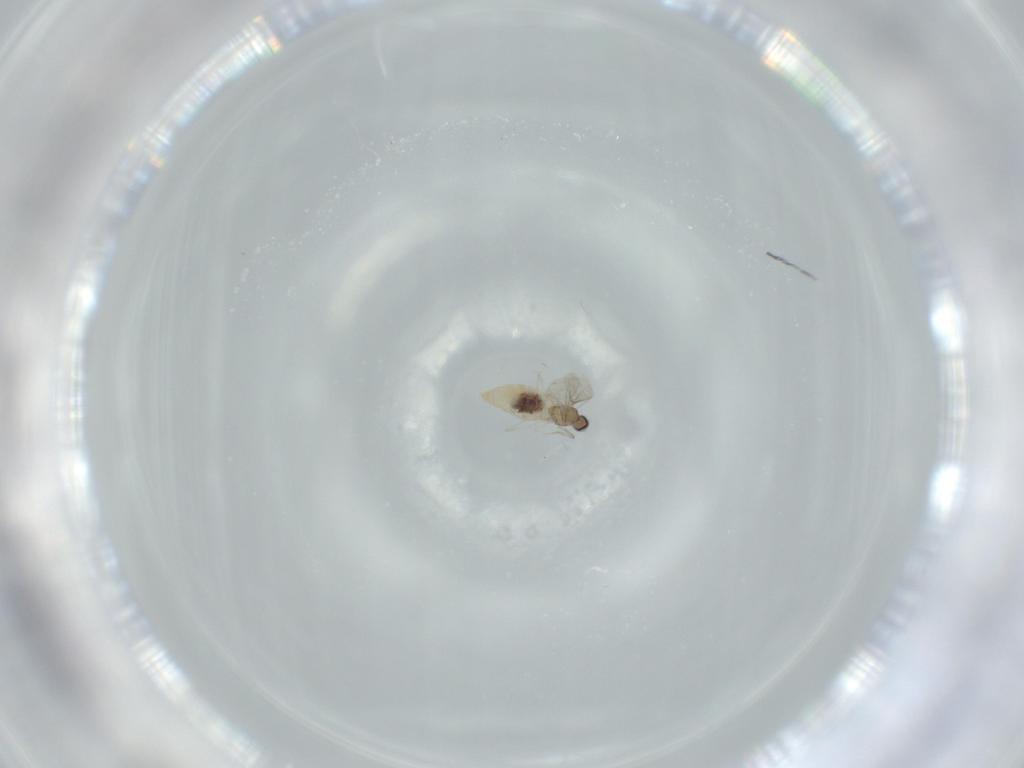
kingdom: Animalia
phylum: Arthropoda
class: Insecta
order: Diptera
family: Cecidomyiidae
